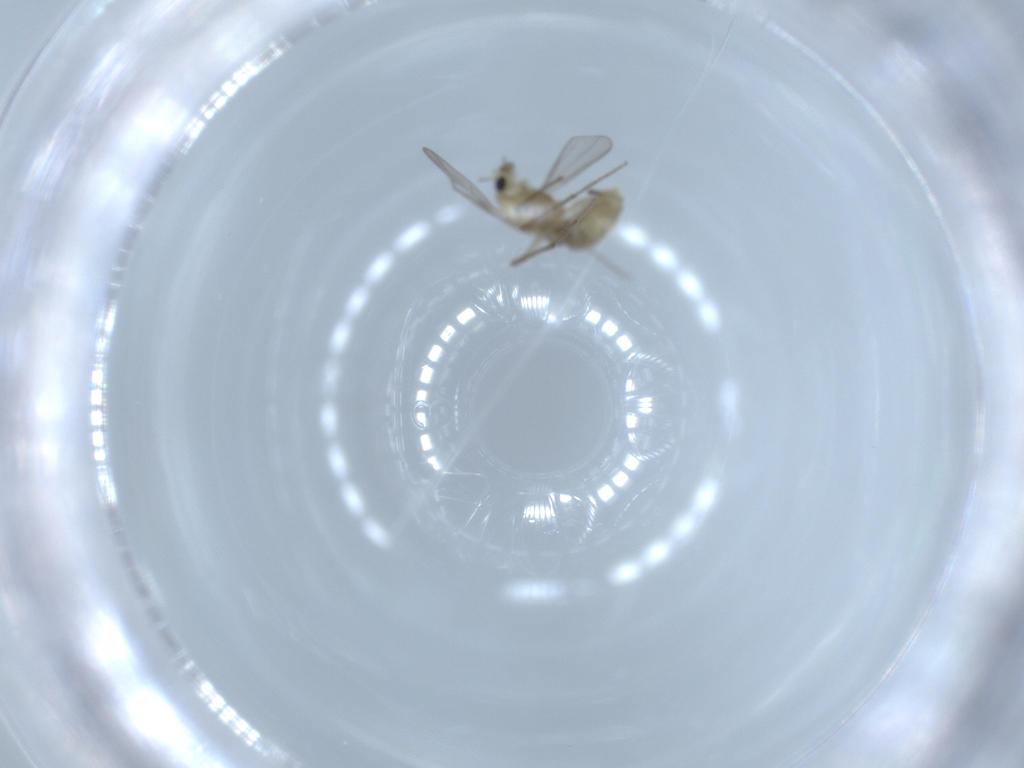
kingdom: Animalia
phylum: Arthropoda
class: Insecta
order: Diptera
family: Chironomidae
